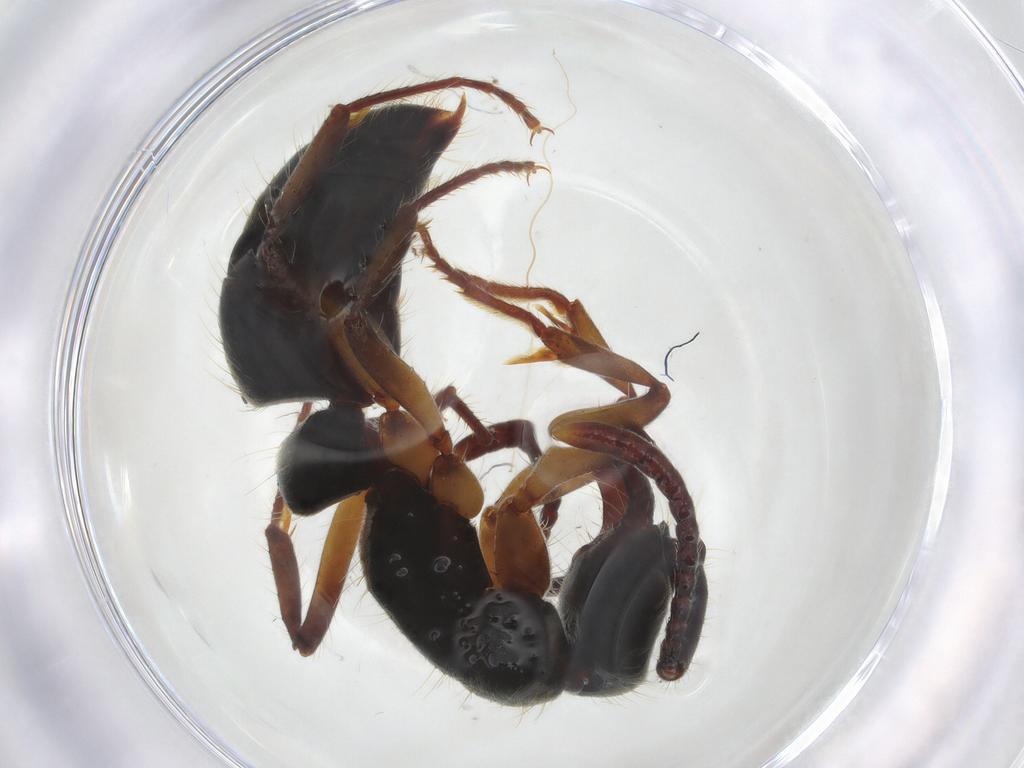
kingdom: Animalia
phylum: Arthropoda
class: Insecta
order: Hymenoptera
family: Formicidae
